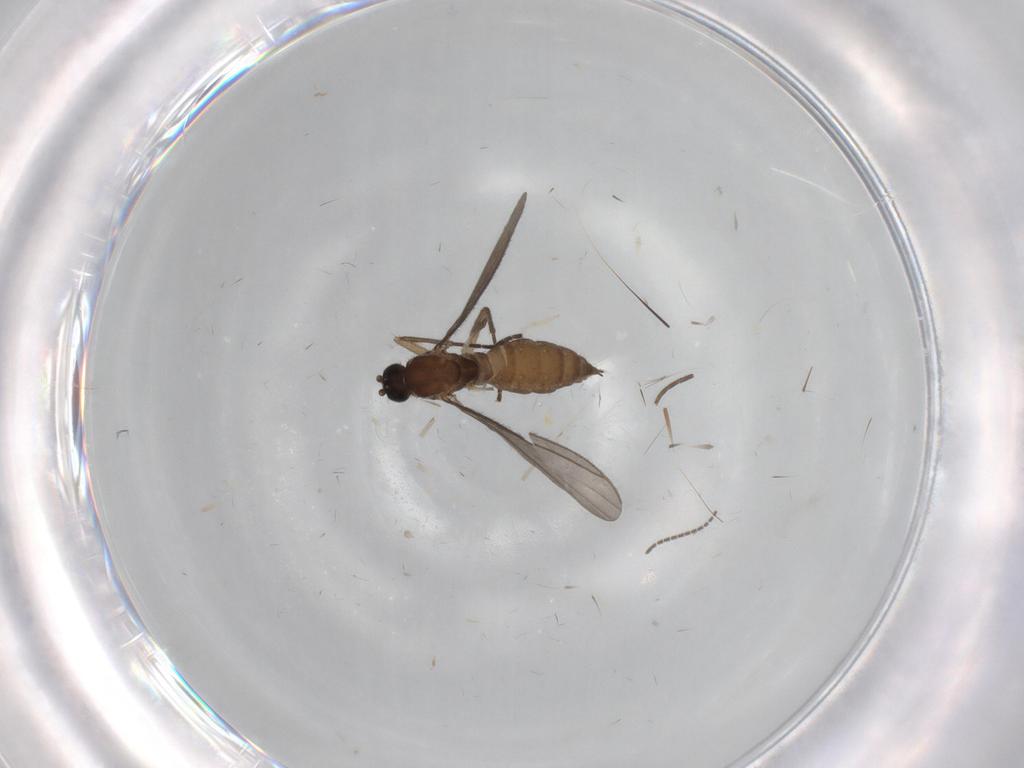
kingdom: Animalia
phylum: Arthropoda
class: Insecta
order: Diptera
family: Sciaridae
